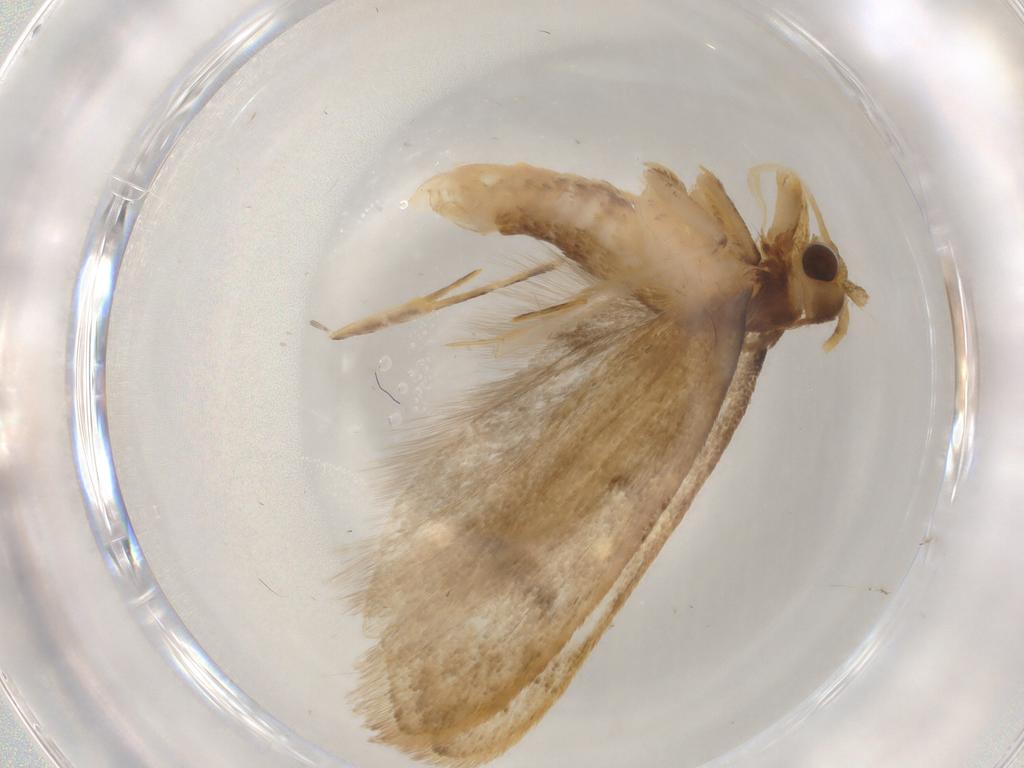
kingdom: Animalia
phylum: Arthropoda
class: Insecta
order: Lepidoptera
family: Lecithoceridae
